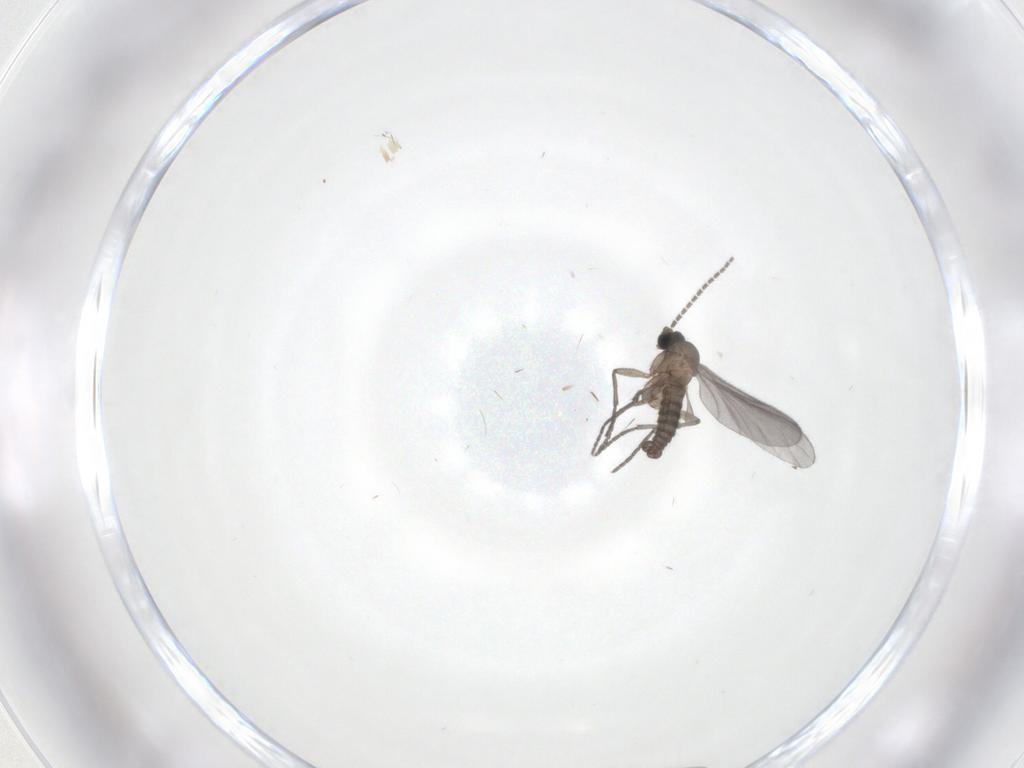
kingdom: Animalia
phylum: Arthropoda
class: Insecta
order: Diptera
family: Sciaridae
